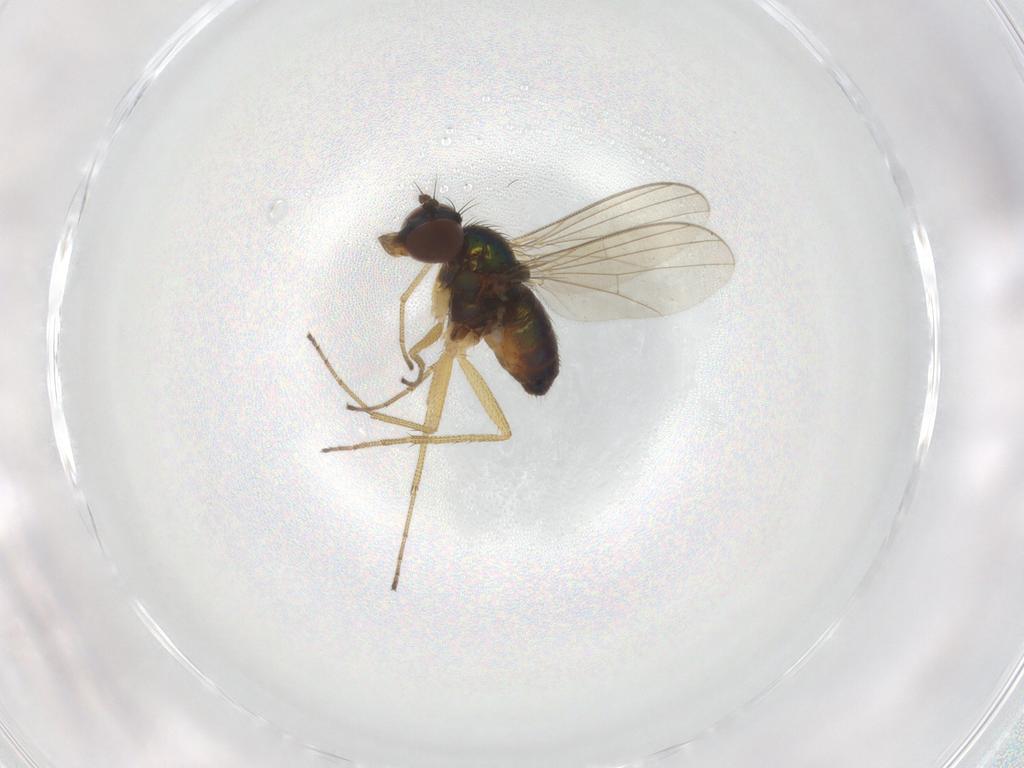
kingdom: Animalia
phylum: Arthropoda
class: Insecta
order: Diptera
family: Dolichopodidae
